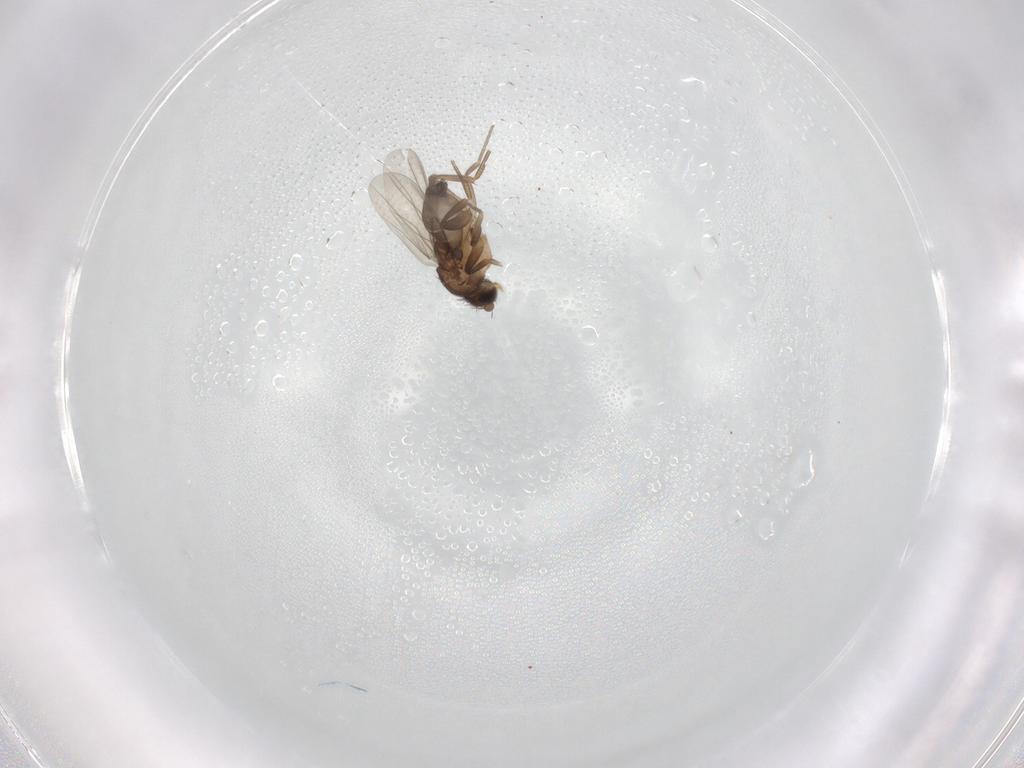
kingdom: Animalia
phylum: Arthropoda
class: Insecta
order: Diptera
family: Phoridae
